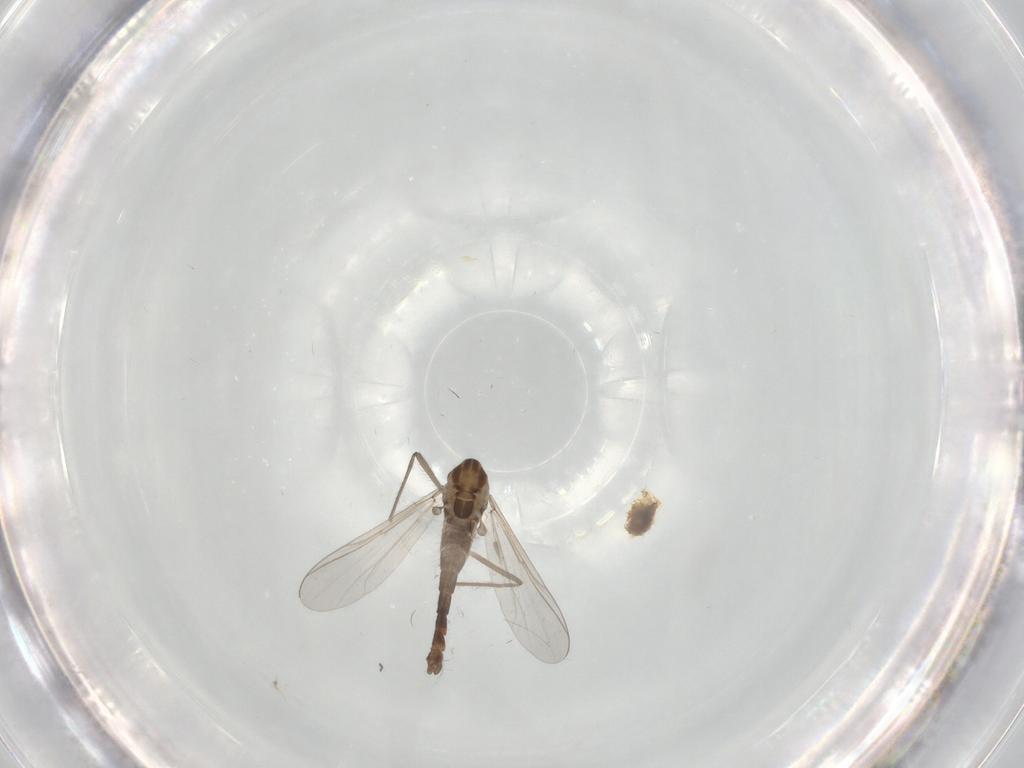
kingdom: Animalia
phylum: Arthropoda
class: Insecta
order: Diptera
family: Chironomidae
